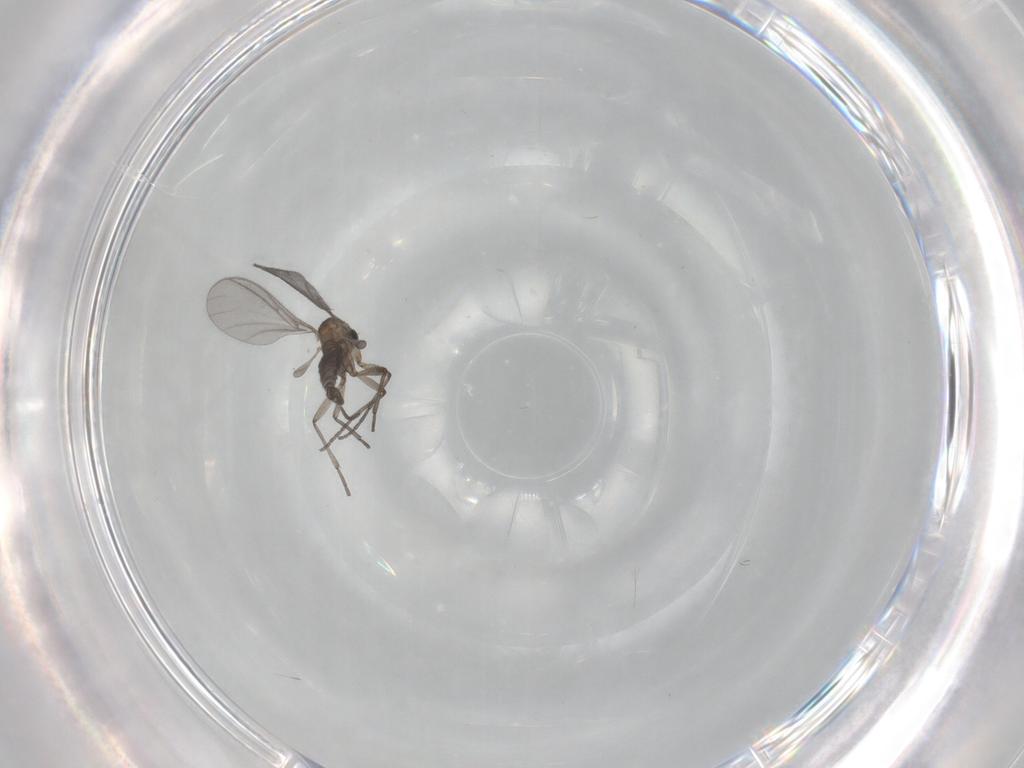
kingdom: Animalia
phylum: Arthropoda
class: Insecta
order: Diptera
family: Sciaridae
